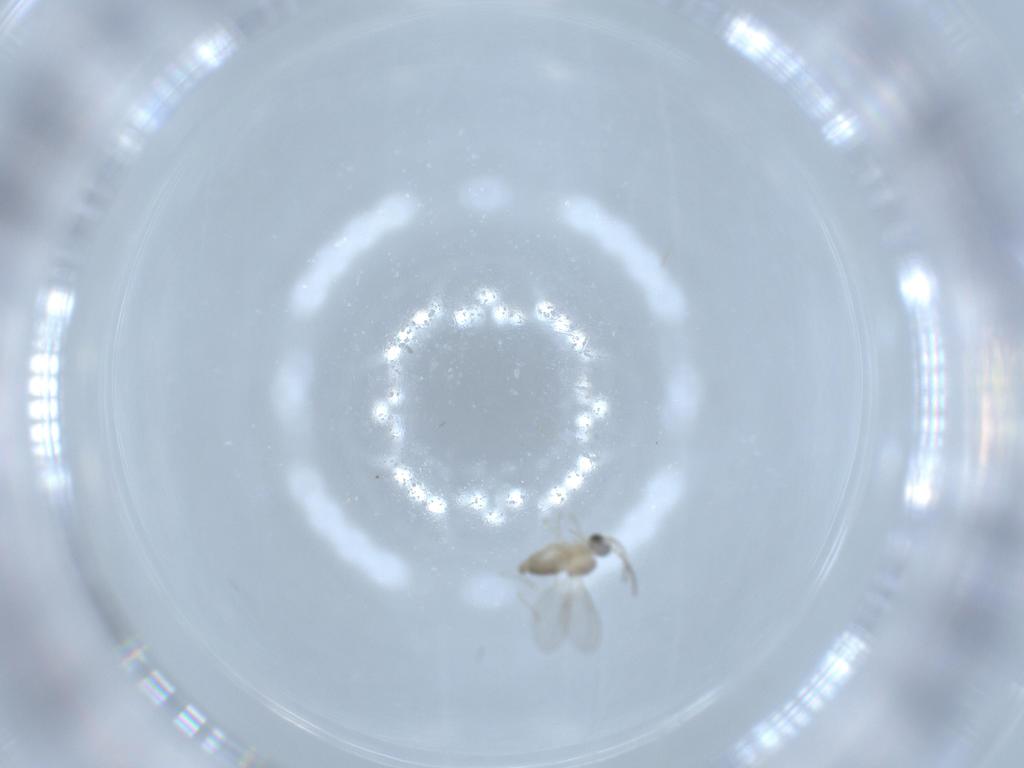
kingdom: Animalia
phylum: Arthropoda
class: Insecta
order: Diptera
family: Cecidomyiidae
